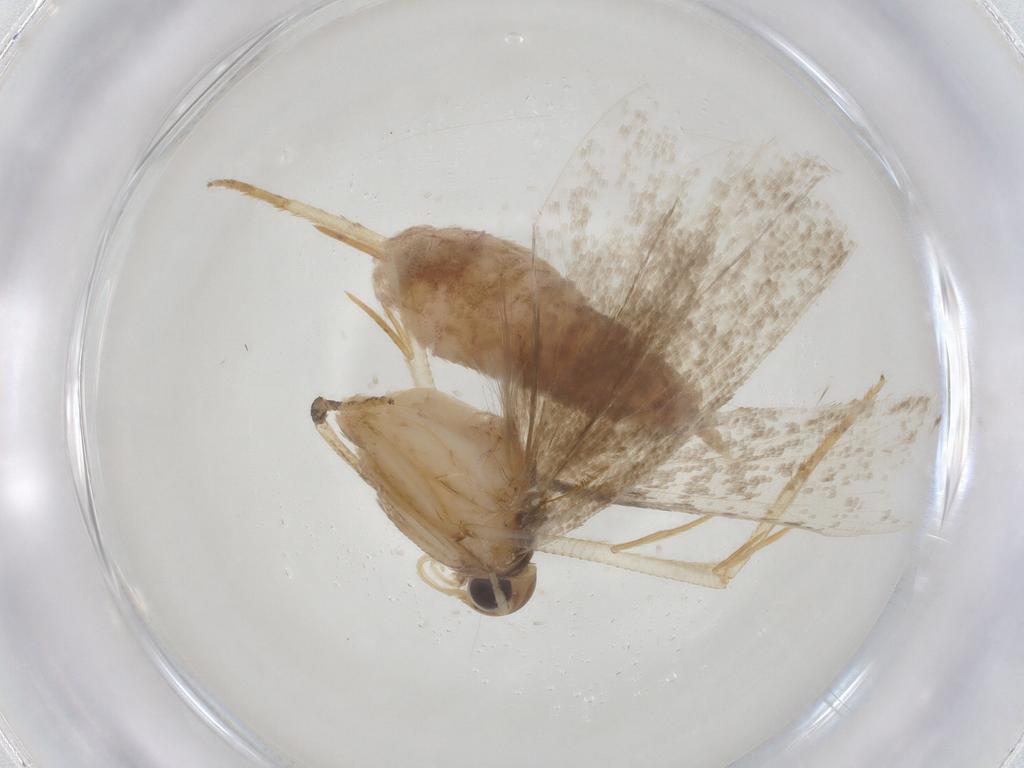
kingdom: Animalia
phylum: Arthropoda
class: Insecta
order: Lepidoptera
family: Gelechiidae
